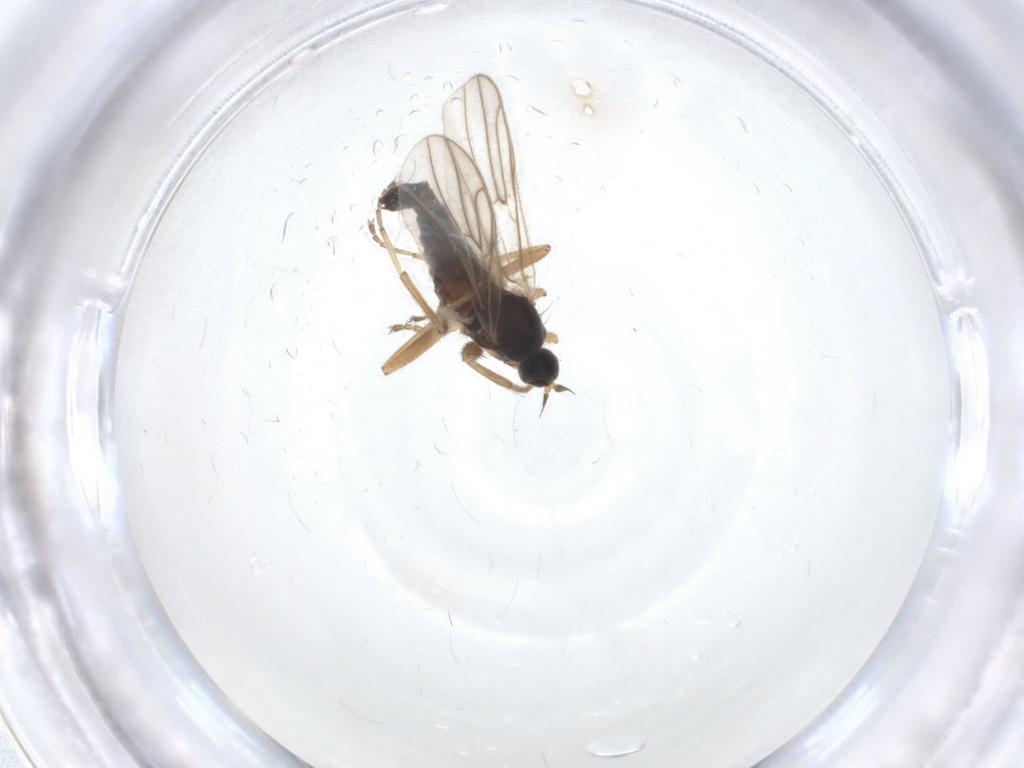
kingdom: Animalia
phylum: Arthropoda
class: Insecta
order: Diptera
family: Hybotidae
